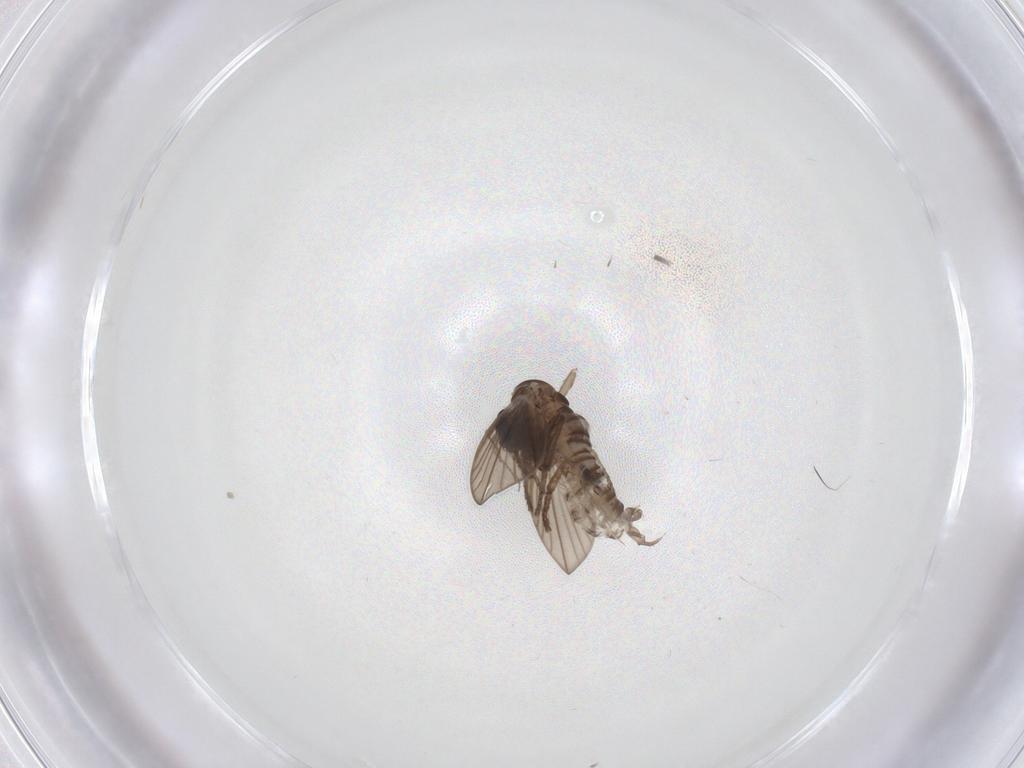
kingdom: Animalia
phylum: Arthropoda
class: Insecta
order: Diptera
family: Psychodidae
